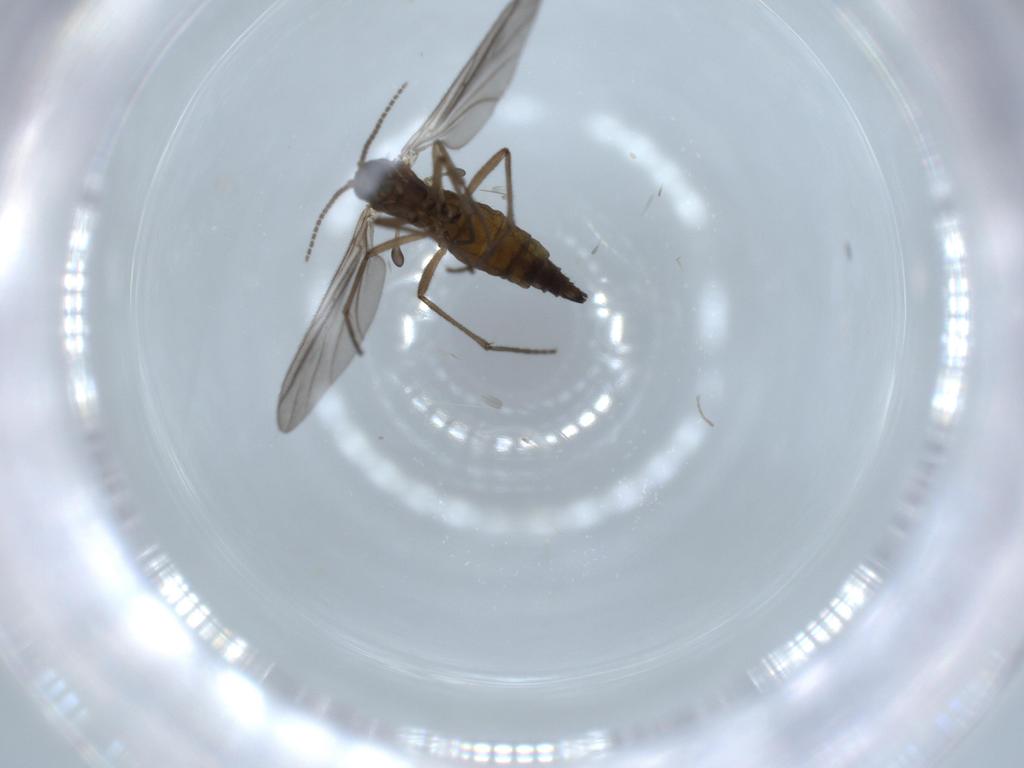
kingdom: Animalia
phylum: Arthropoda
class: Insecta
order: Diptera
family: Sciaridae
